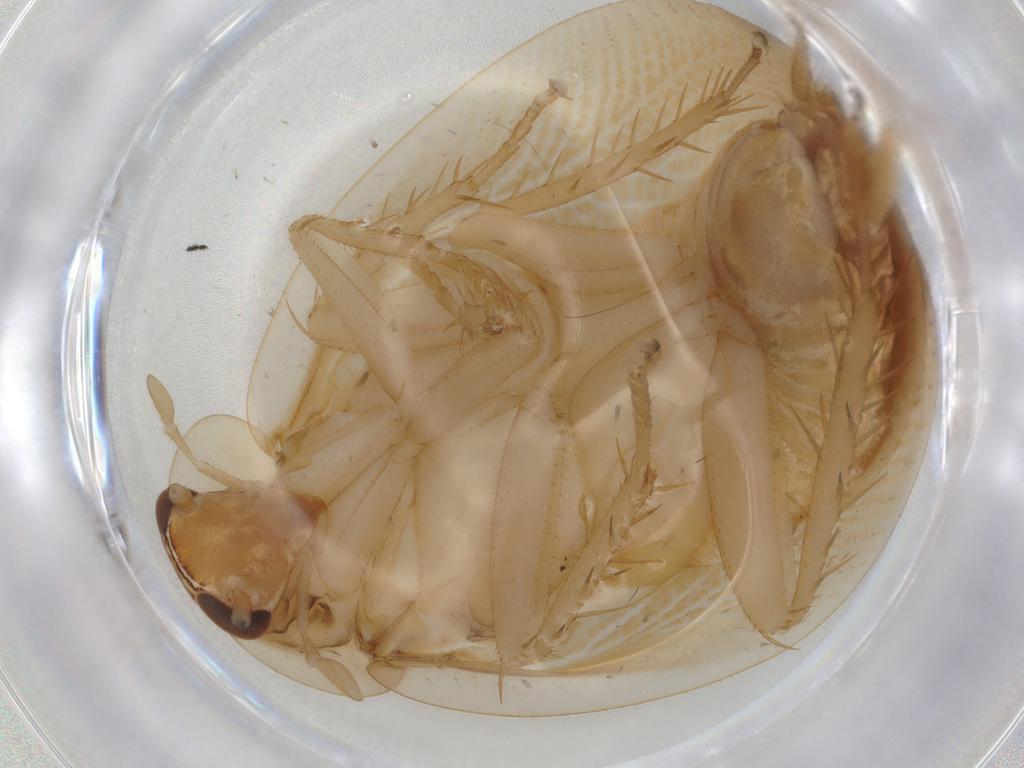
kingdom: Animalia
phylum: Arthropoda
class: Insecta
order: Blattodea
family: Ectobiidae
